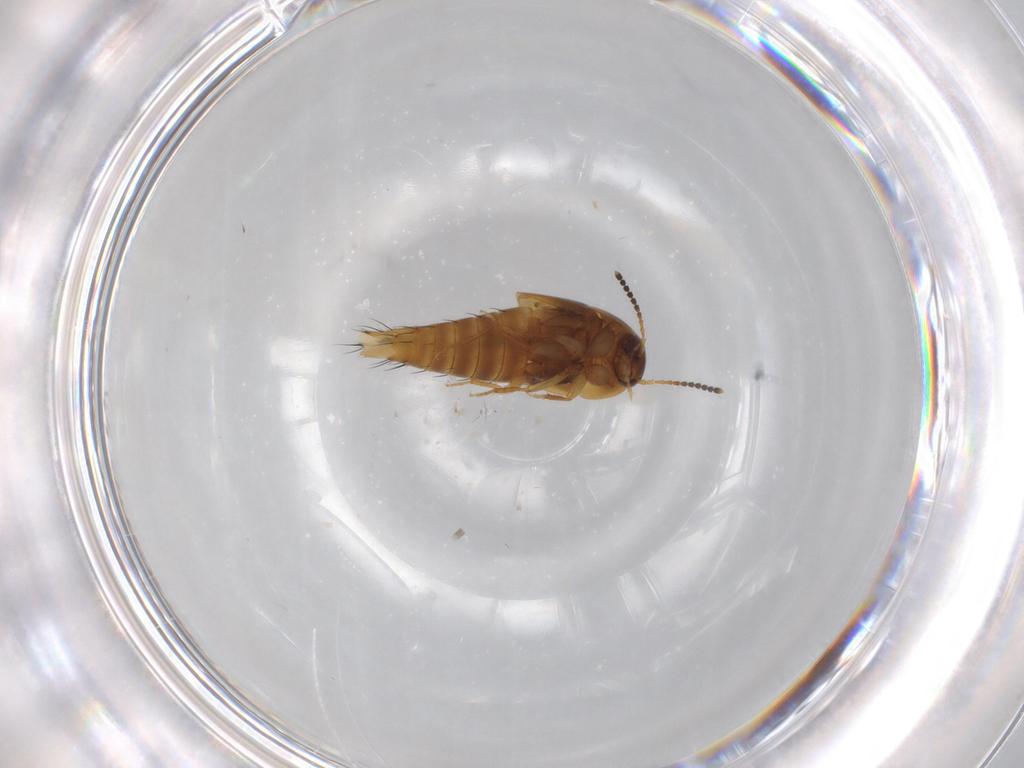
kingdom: Animalia
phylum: Arthropoda
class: Insecta
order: Coleoptera
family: Staphylinidae
